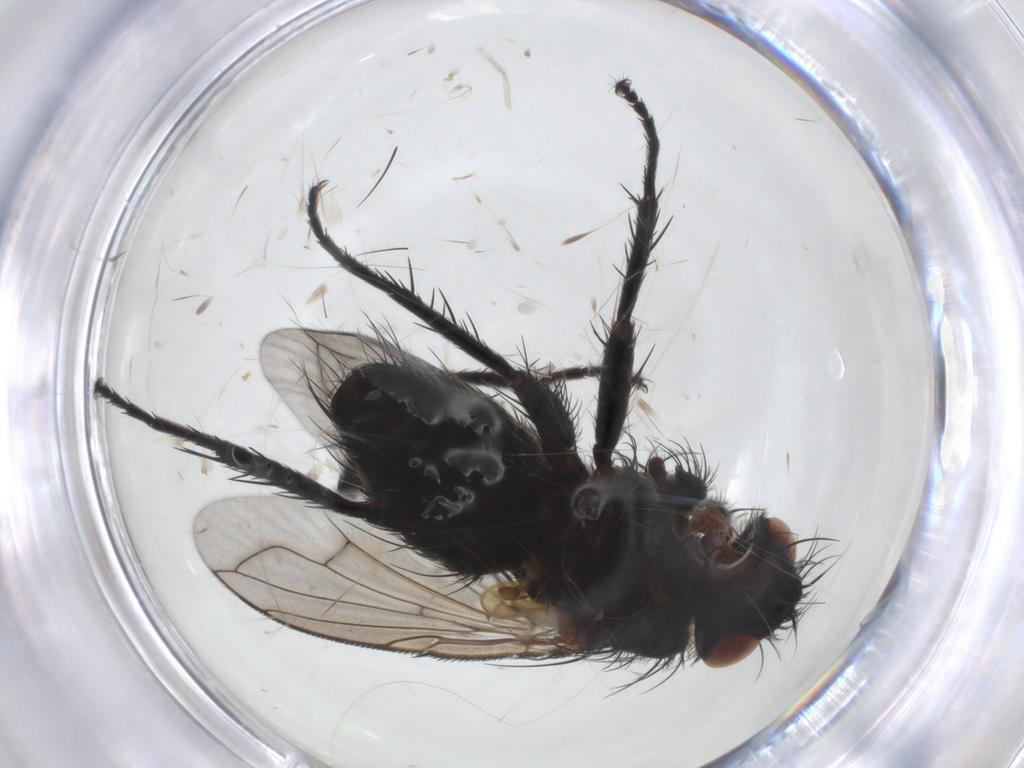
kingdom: Animalia
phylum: Arthropoda
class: Insecta
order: Diptera
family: Tachinidae
